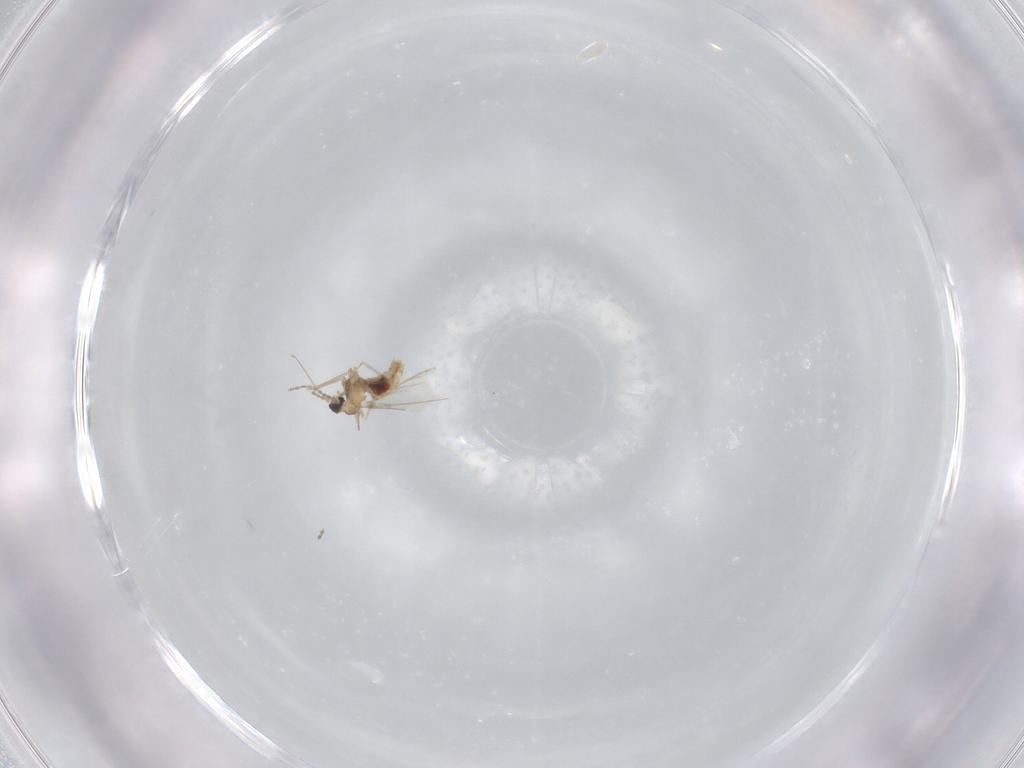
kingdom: Animalia
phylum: Arthropoda
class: Insecta
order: Diptera
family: Cecidomyiidae
